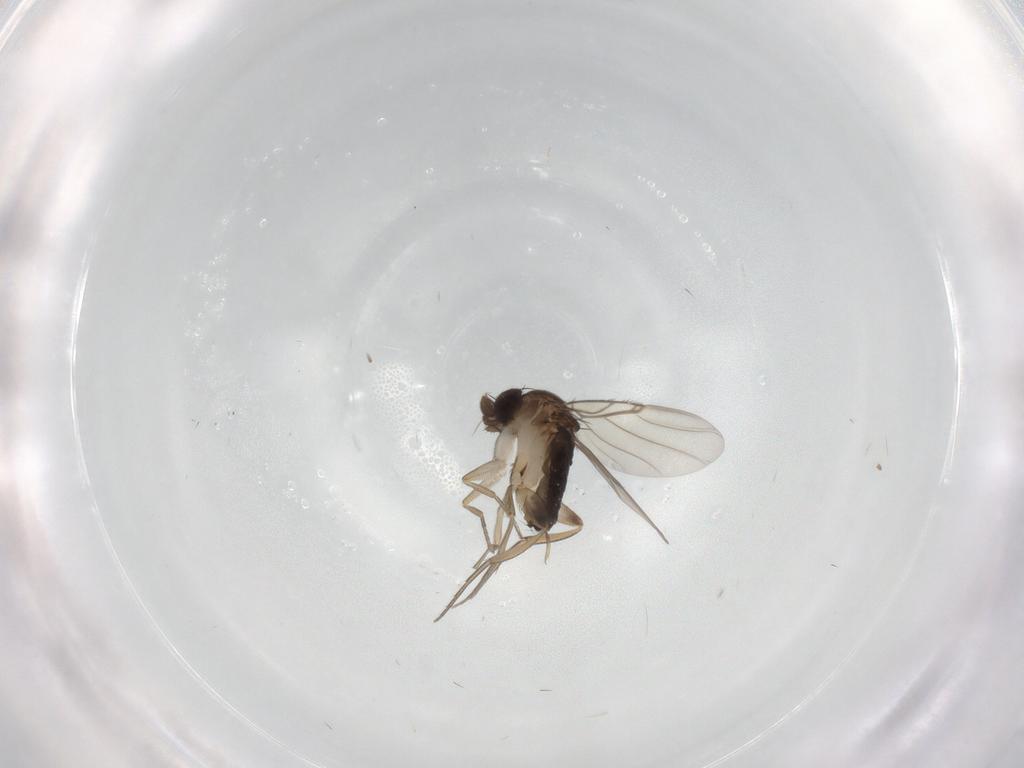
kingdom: Animalia
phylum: Arthropoda
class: Insecta
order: Diptera
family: Phoridae
